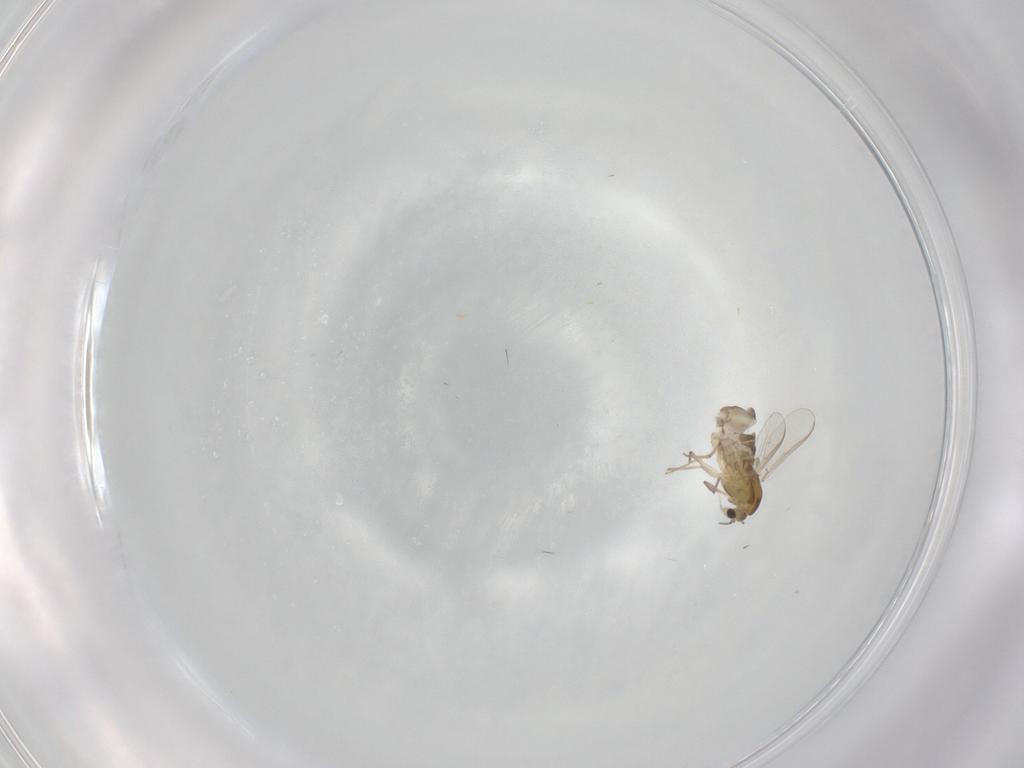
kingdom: Animalia
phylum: Arthropoda
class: Insecta
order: Diptera
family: Chironomidae
